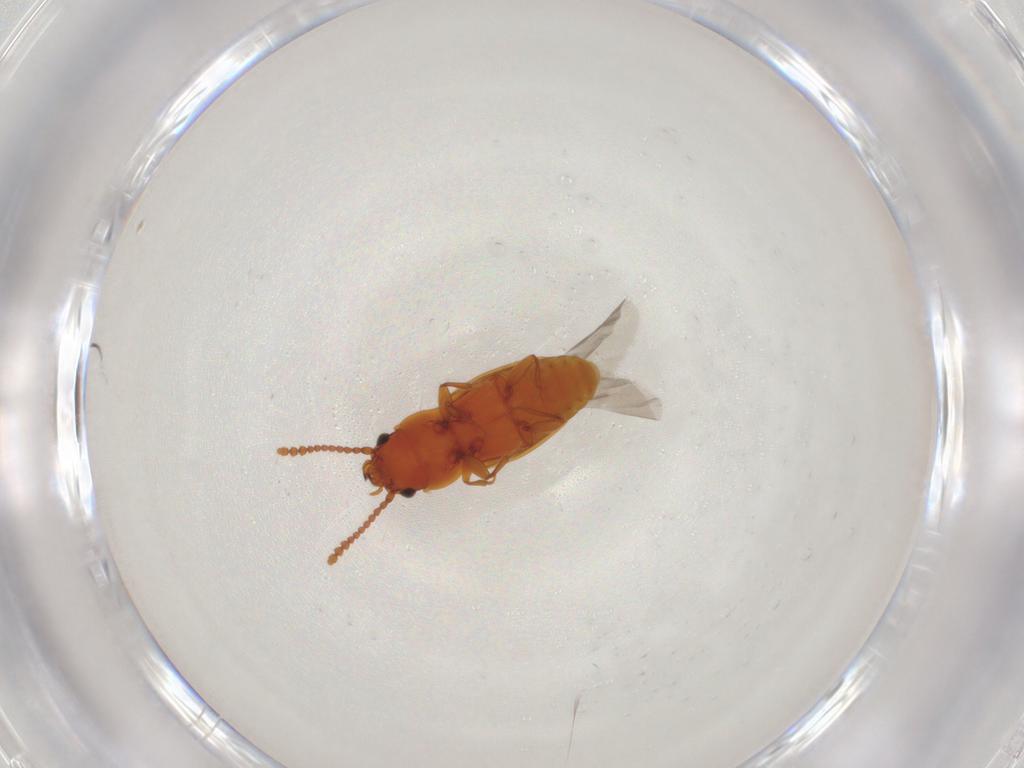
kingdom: Animalia
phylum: Arthropoda
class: Insecta
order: Coleoptera
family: Laemophloeidae
